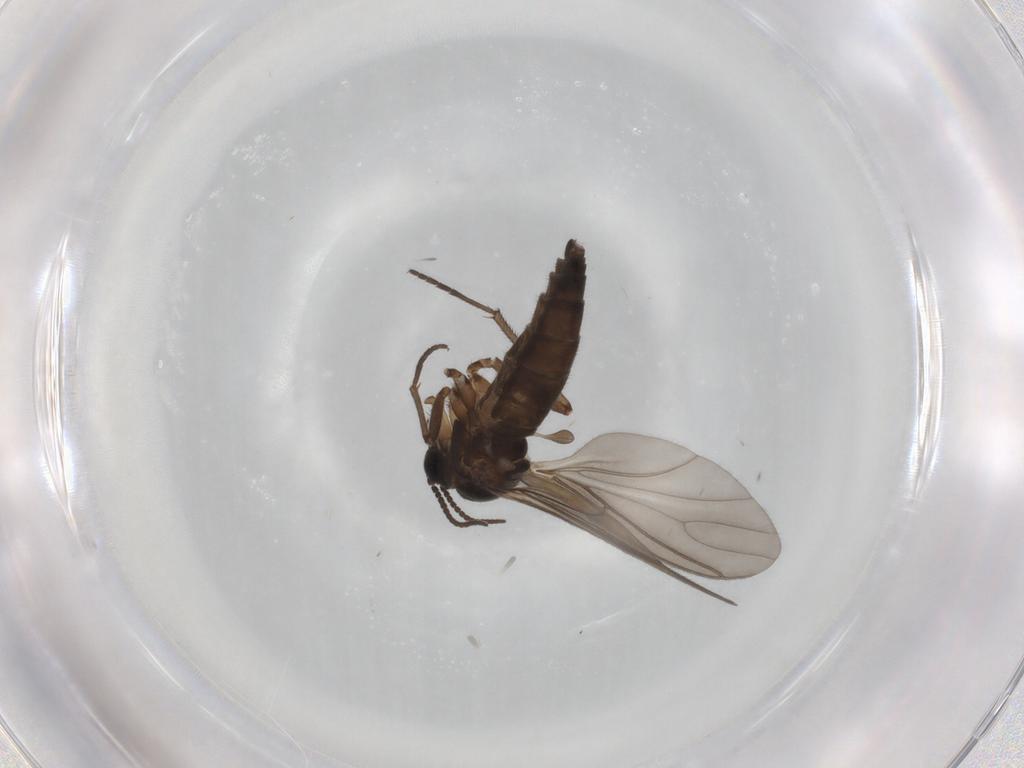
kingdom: Animalia
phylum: Arthropoda
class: Insecta
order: Diptera
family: Sciaridae
